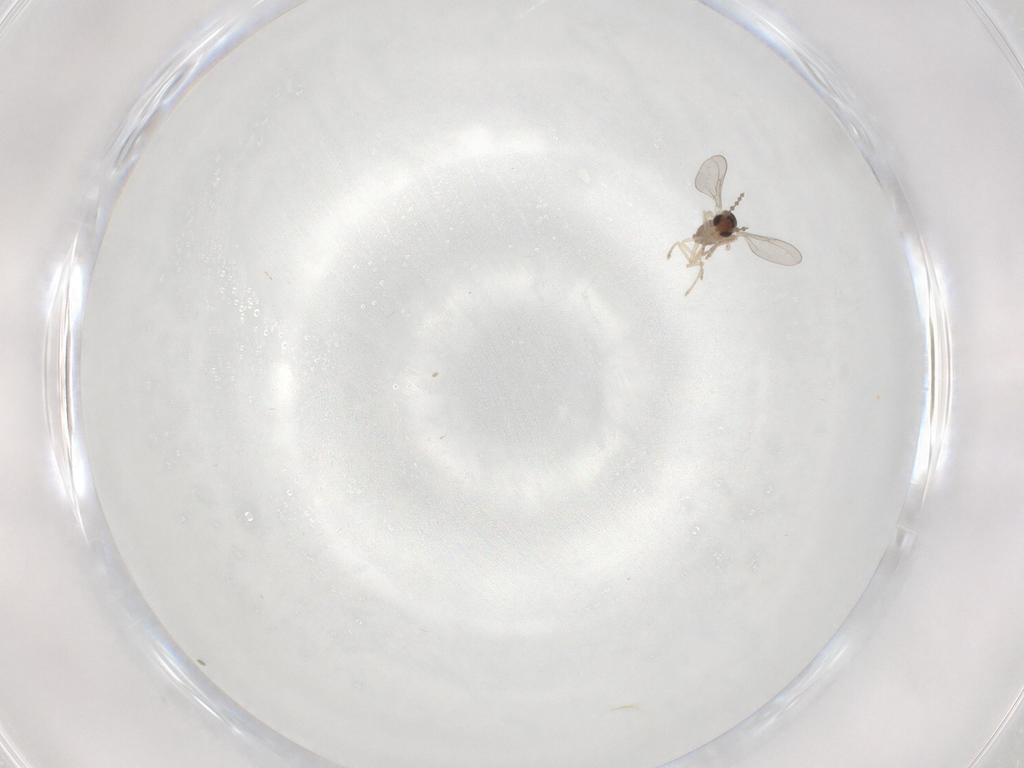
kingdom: Animalia
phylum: Arthropoda
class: Insecta
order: Diptera
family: Cecidomyiidae
